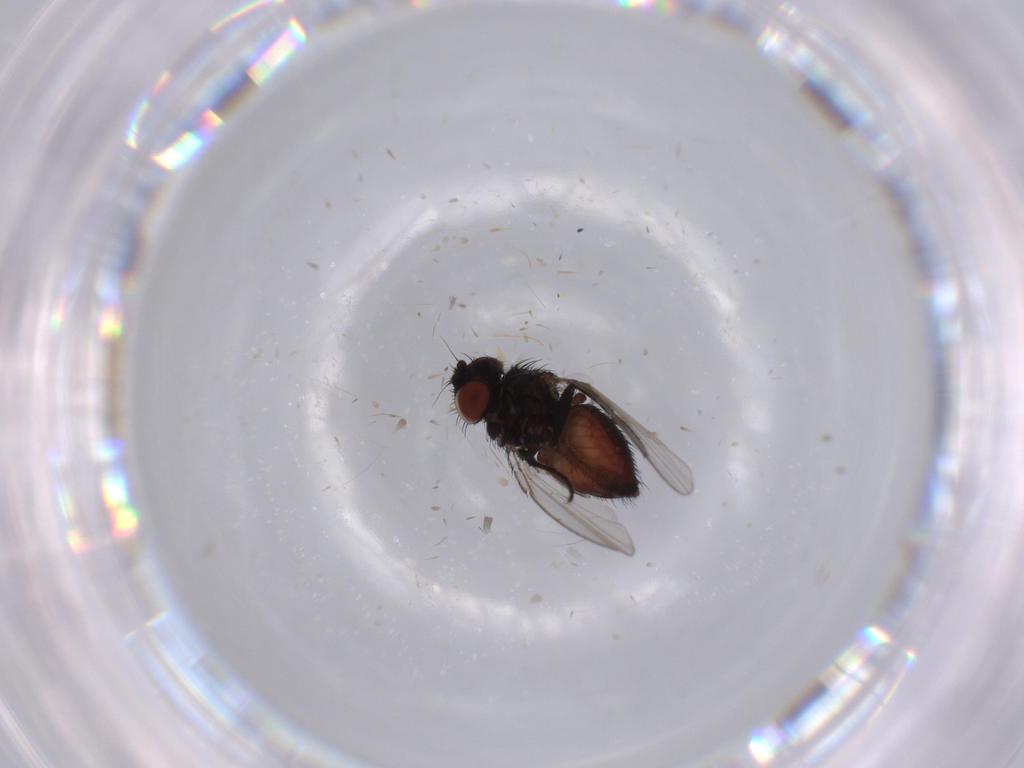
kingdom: Animalia
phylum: Arthropoda
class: Insecta
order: Diptera
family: Milichiidae
